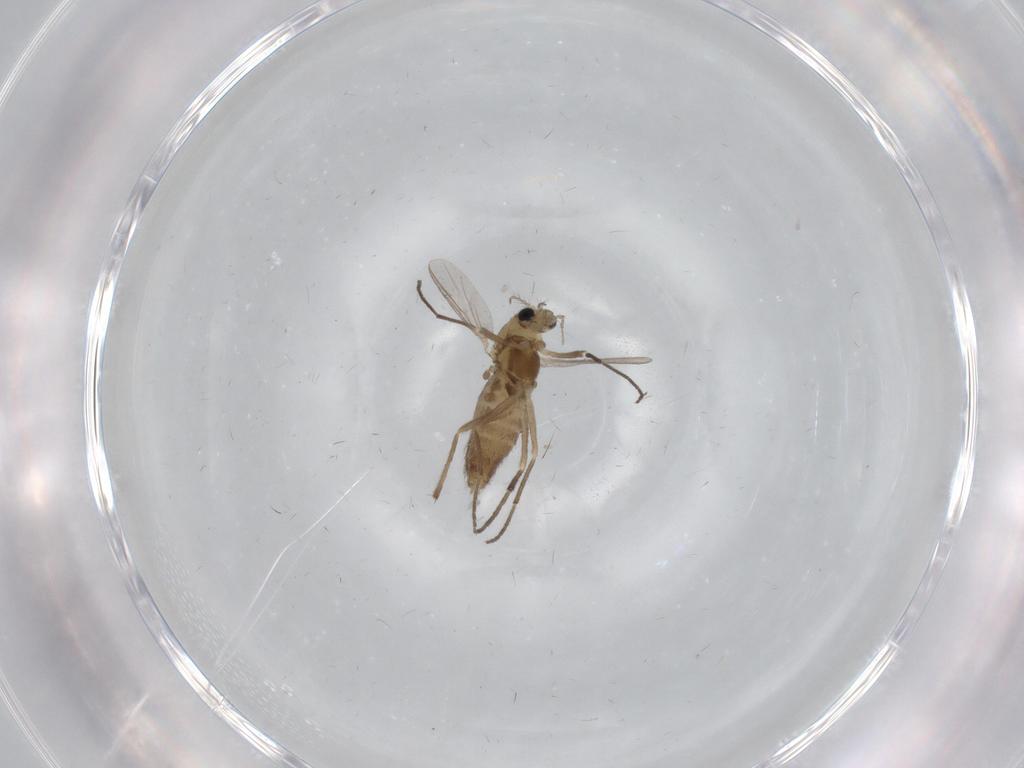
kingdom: Animalia
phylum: Arthropoda
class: Insecta
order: Diptera
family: Chironomidae
